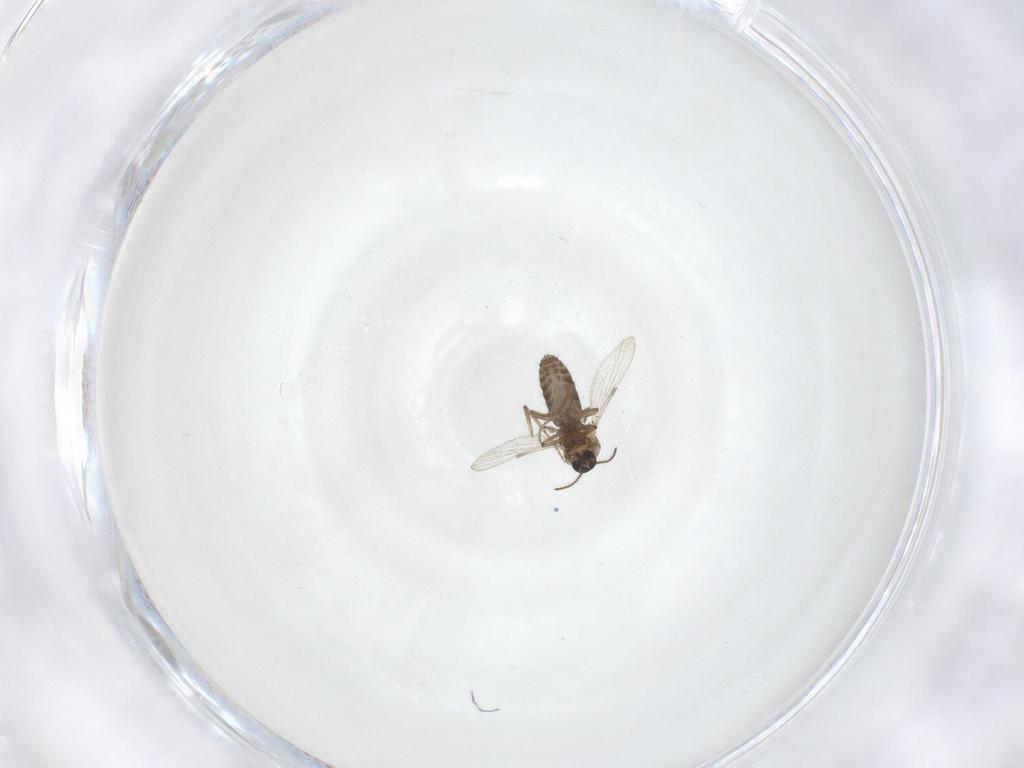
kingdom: Animalia
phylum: Arthropoda
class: Insecta
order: Diptera
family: Ceratopogonidae
